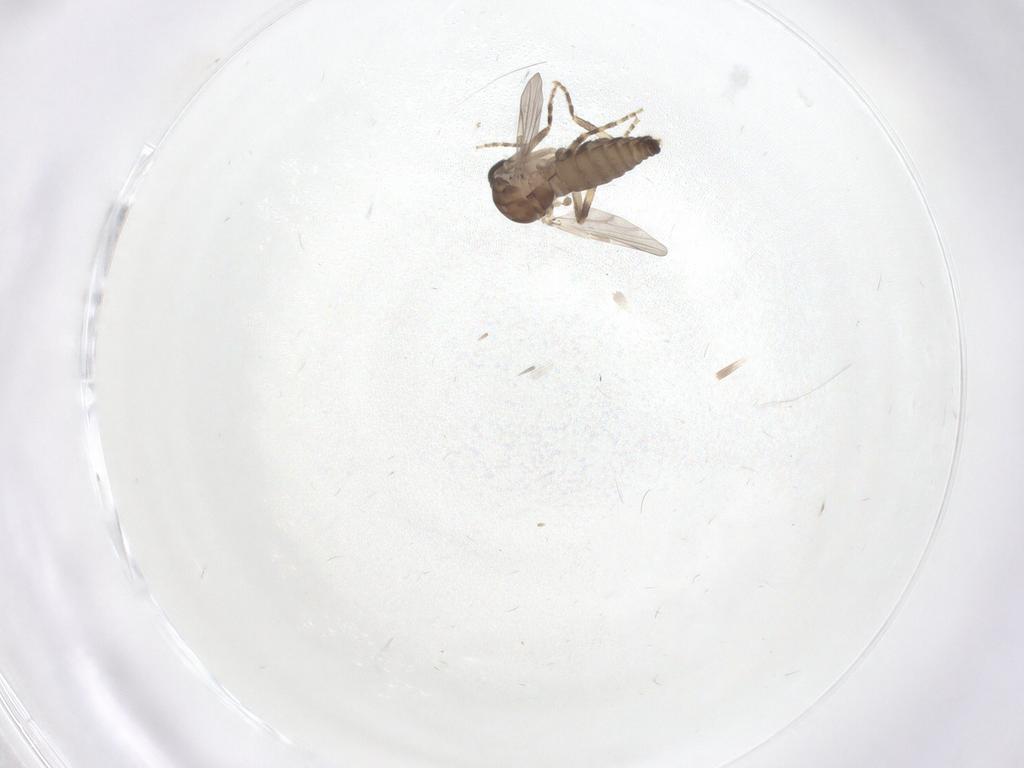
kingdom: Animalia
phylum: Arthropoda
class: Insecta
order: Diptera
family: Ceratopogonidae
